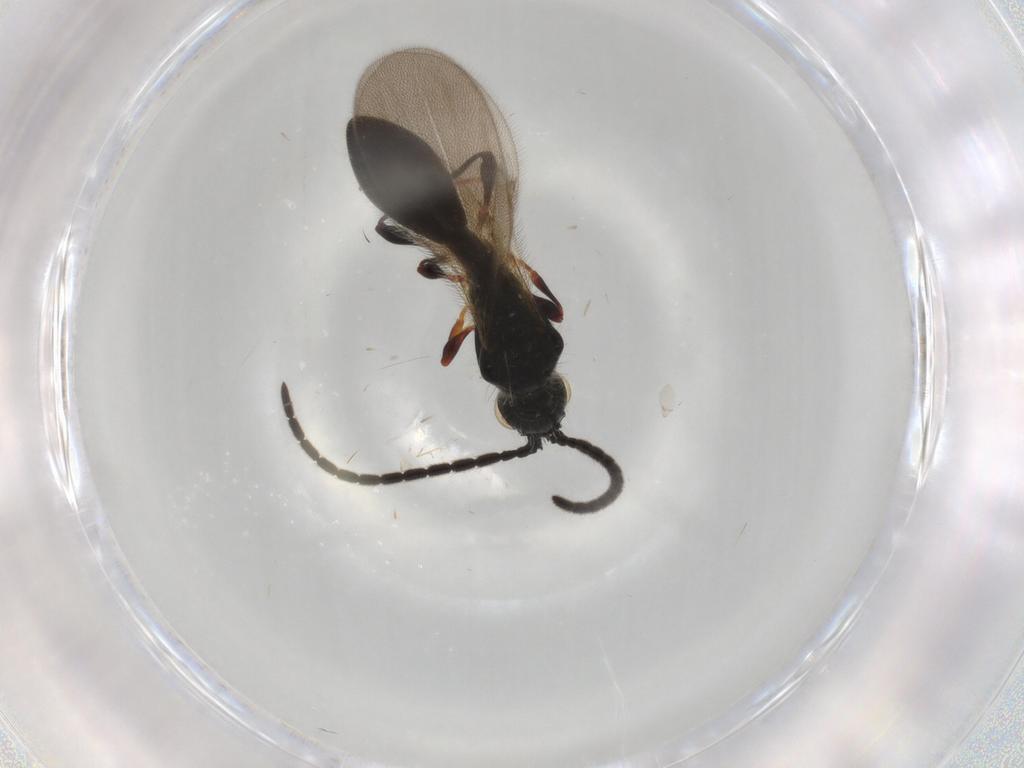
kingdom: Animalia
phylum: Arthropoda
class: Insecta
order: Hymenoptera
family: Diapriidae
